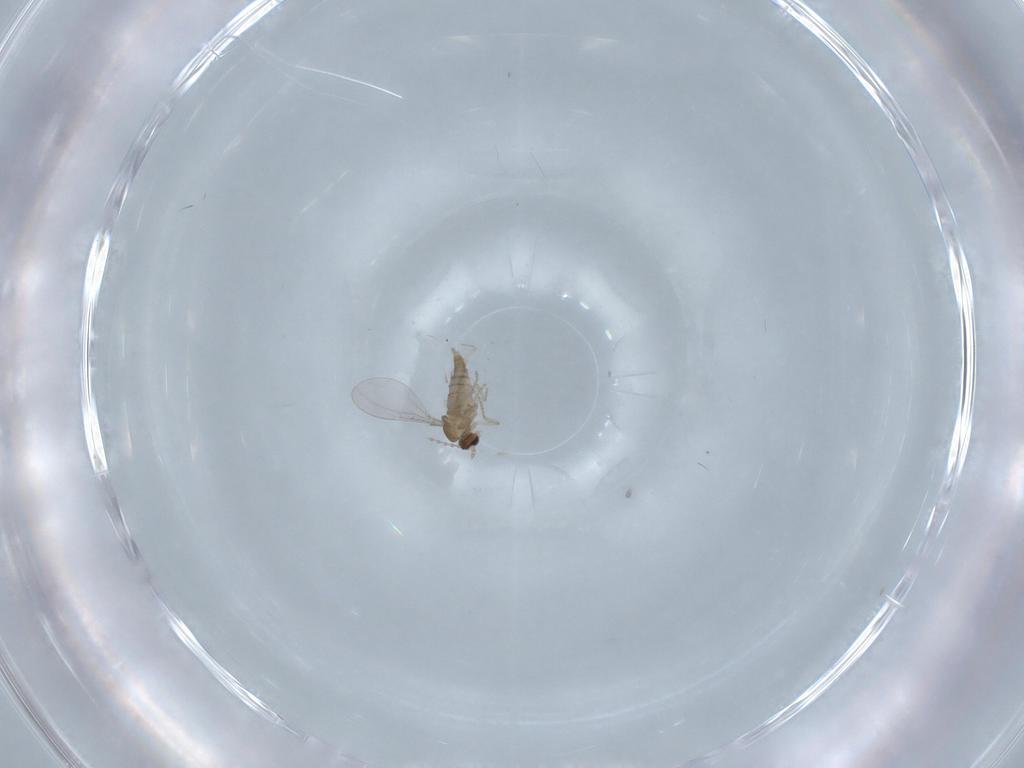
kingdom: Animalia
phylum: Arthropoda
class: Insecta
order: Diptera
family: Cecidomyiidae
